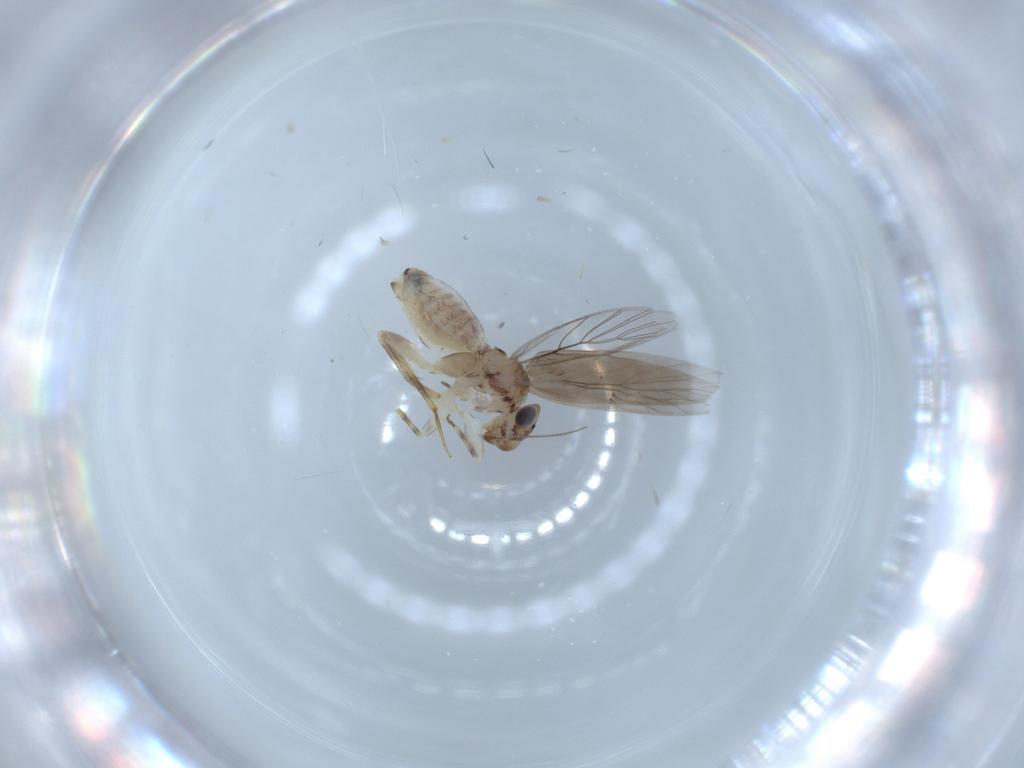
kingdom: Animalia
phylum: Arthropoda
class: Insecta
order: Psocodea
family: Lepidopsocidae
